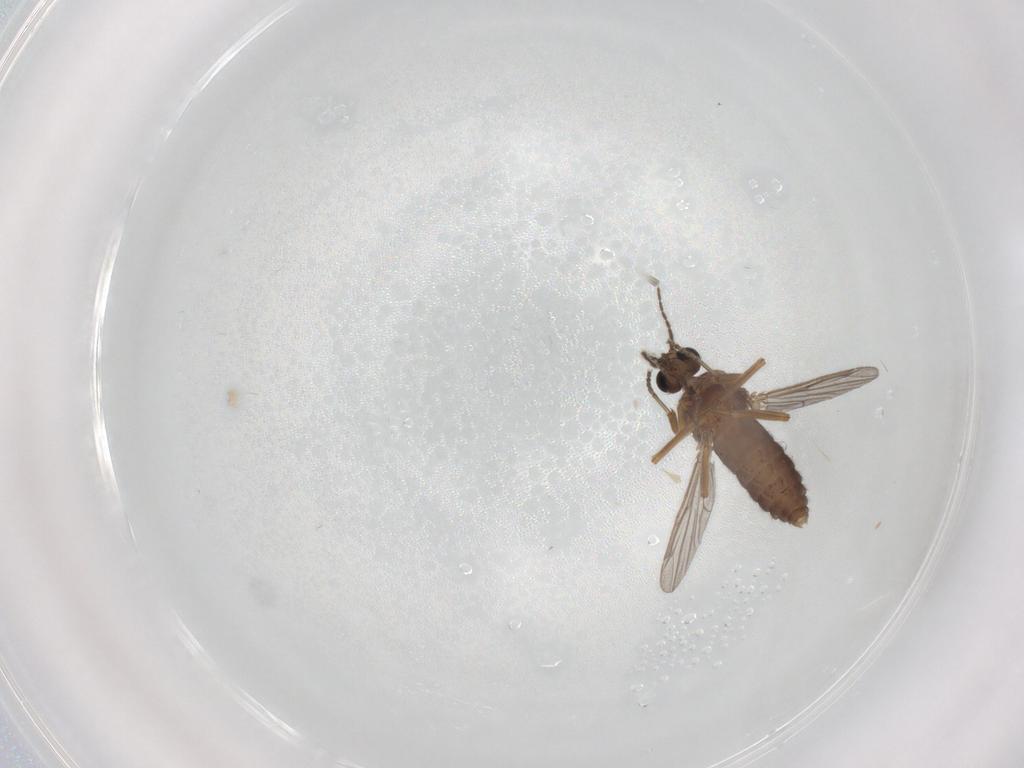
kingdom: Animalia
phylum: Arthropoda
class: Insecta
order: Diptera
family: Ceratopogonidae
